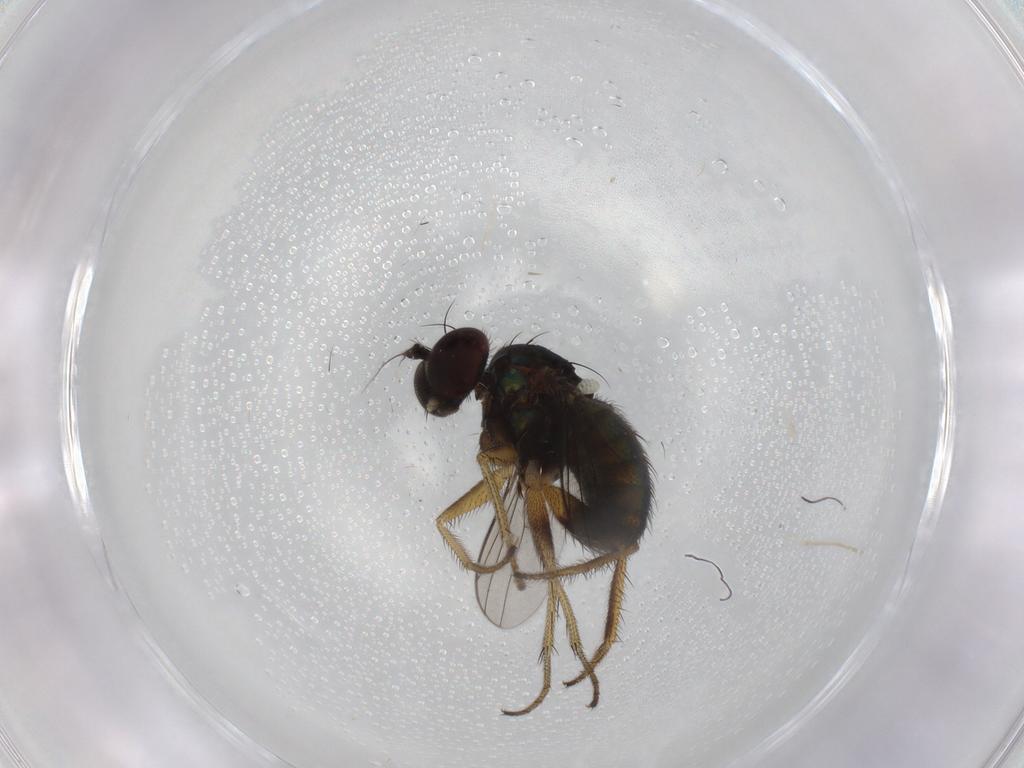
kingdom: Animalia
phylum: Arthropoda
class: Insecta
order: Diptera
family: Dolichopodidae
